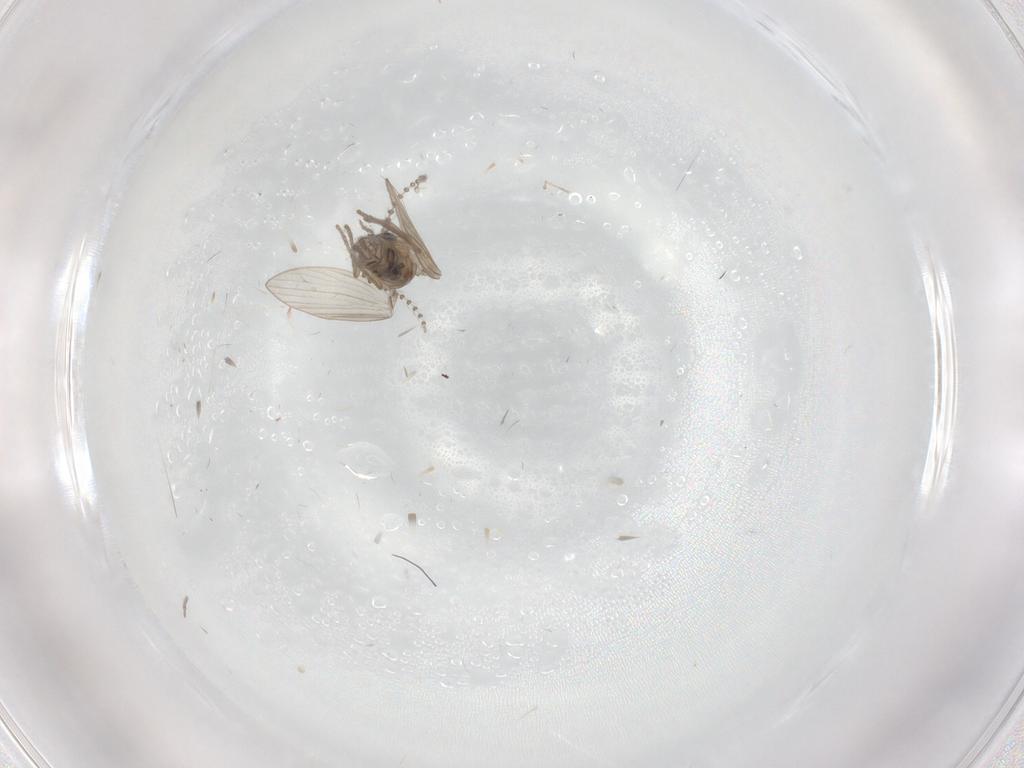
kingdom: Animalia
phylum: Arthropoda
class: Insecta
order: Diptera
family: Psychodidae
